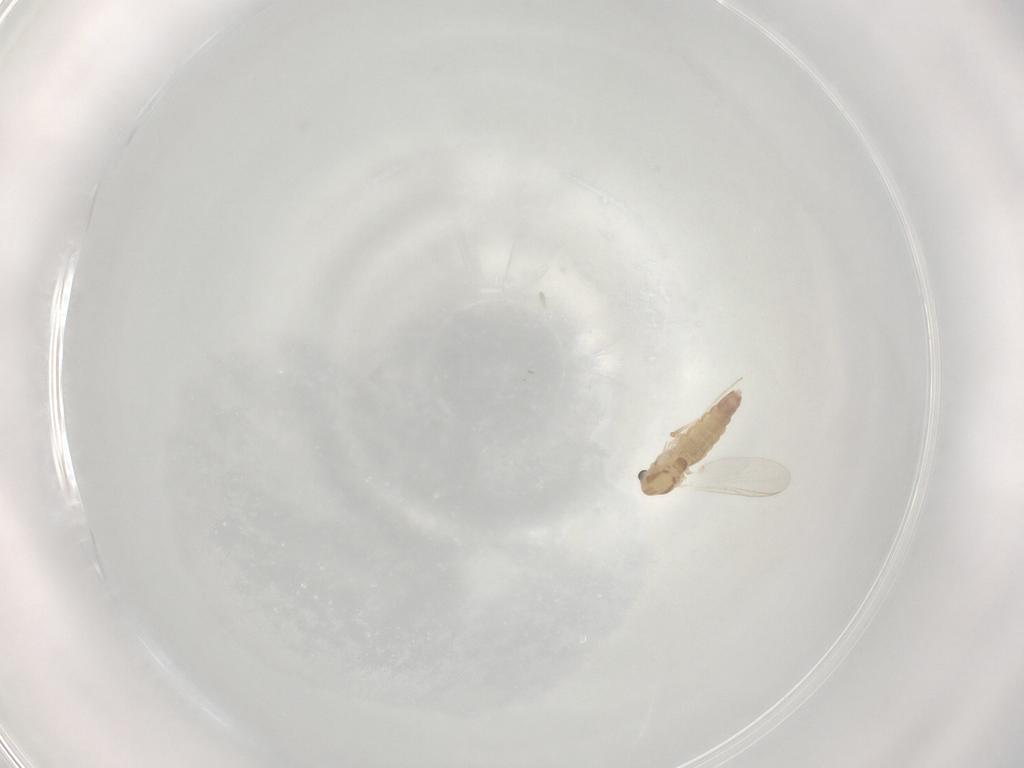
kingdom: Animalia
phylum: Arthropoda
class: Insecta
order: Diptera
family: Chironomidae
